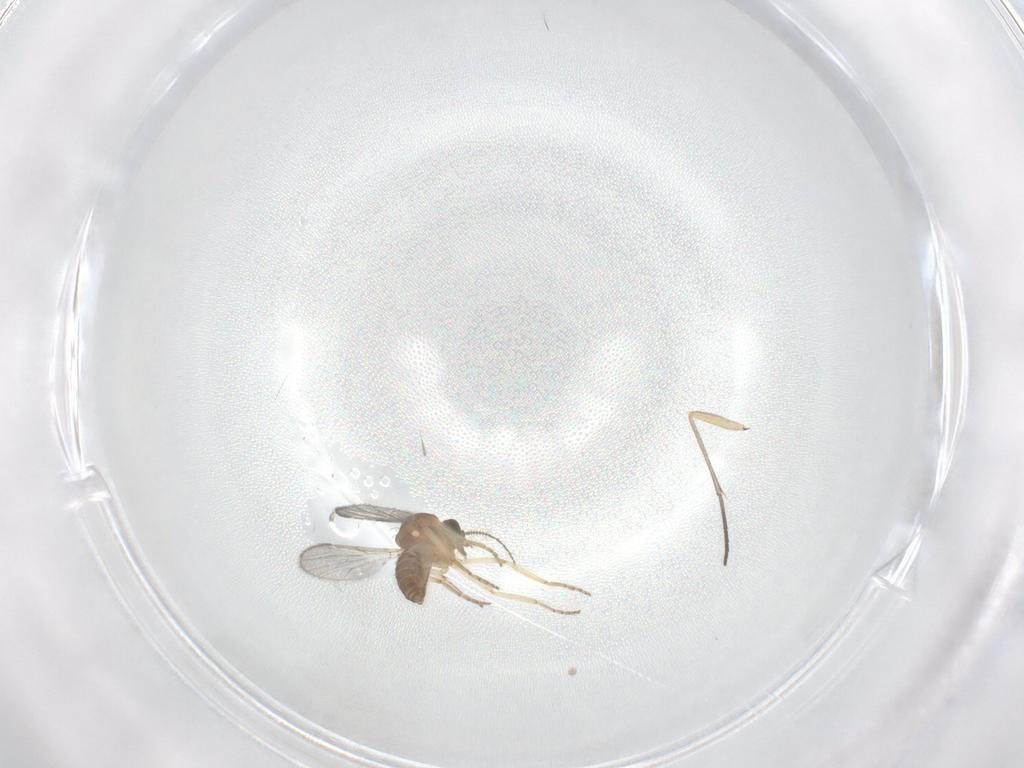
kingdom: Animalia
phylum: Arthropoda
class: Insecta
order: Diptera
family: Ceratopogonidae
